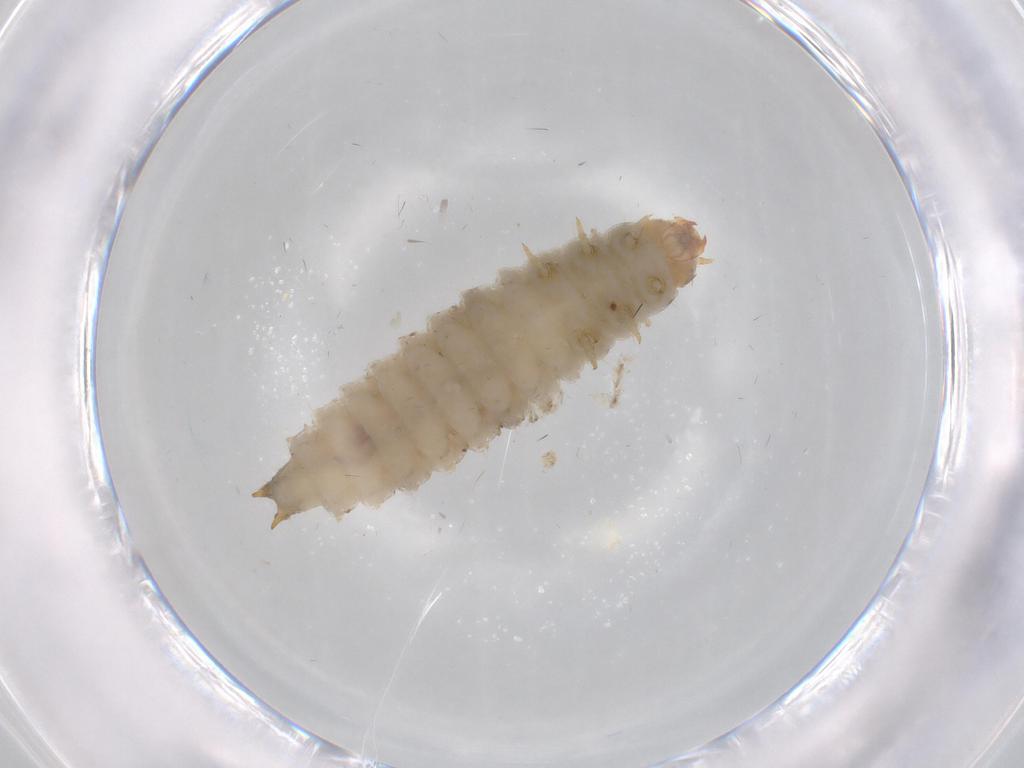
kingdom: Animalia
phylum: Arthropoda
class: Insecta
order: Coleoptera
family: Nitidulidae
